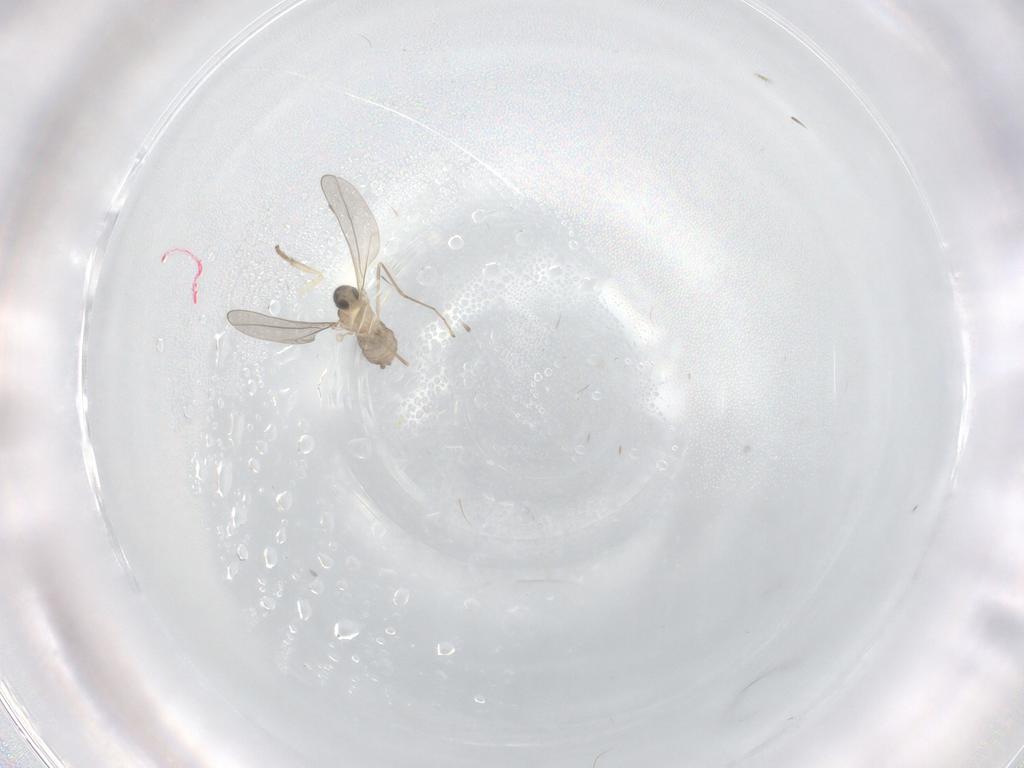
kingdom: Animalia
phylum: Arthropoda
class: Insecta
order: Diptera
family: Cecidomyiidae
